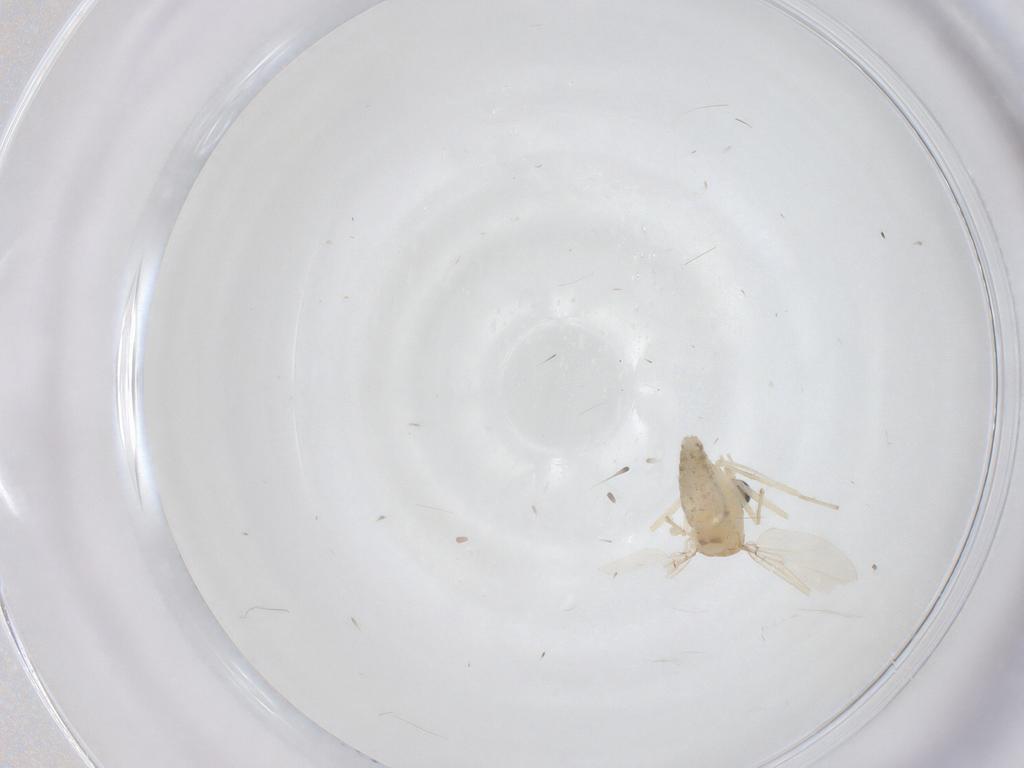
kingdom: Animalia
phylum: Arthropoda
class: Insecta
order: Diptera
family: Chironomidae
